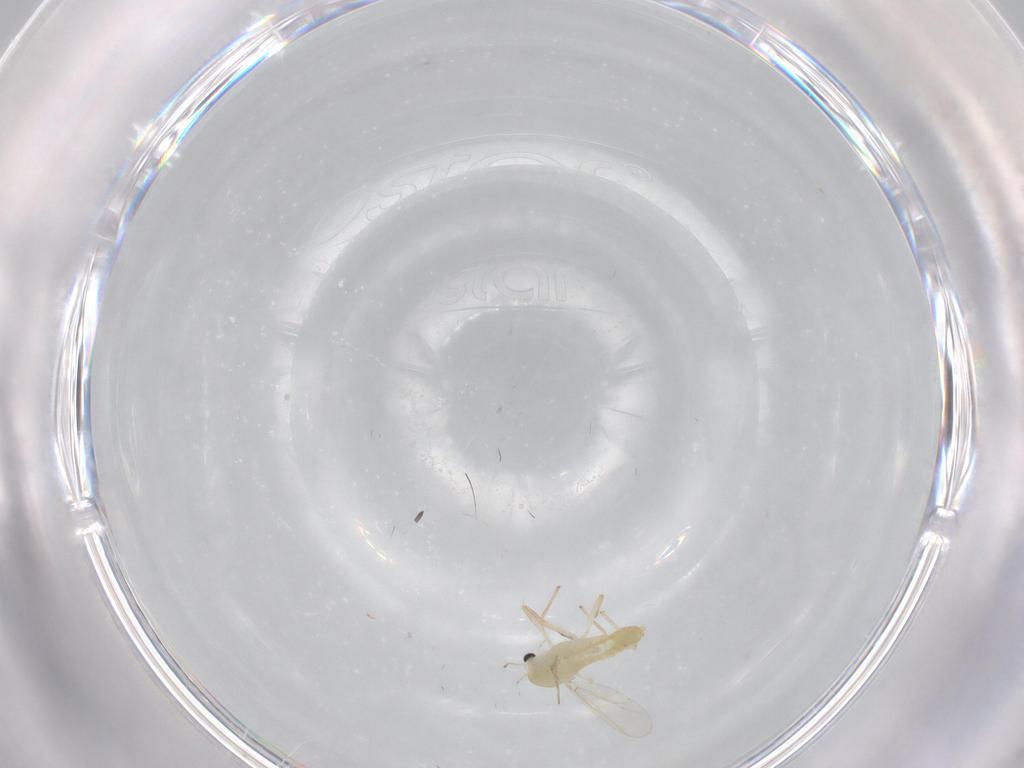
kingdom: Animalia
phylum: Arthropoda
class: Insecta
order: Diptera
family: Chironomidae
